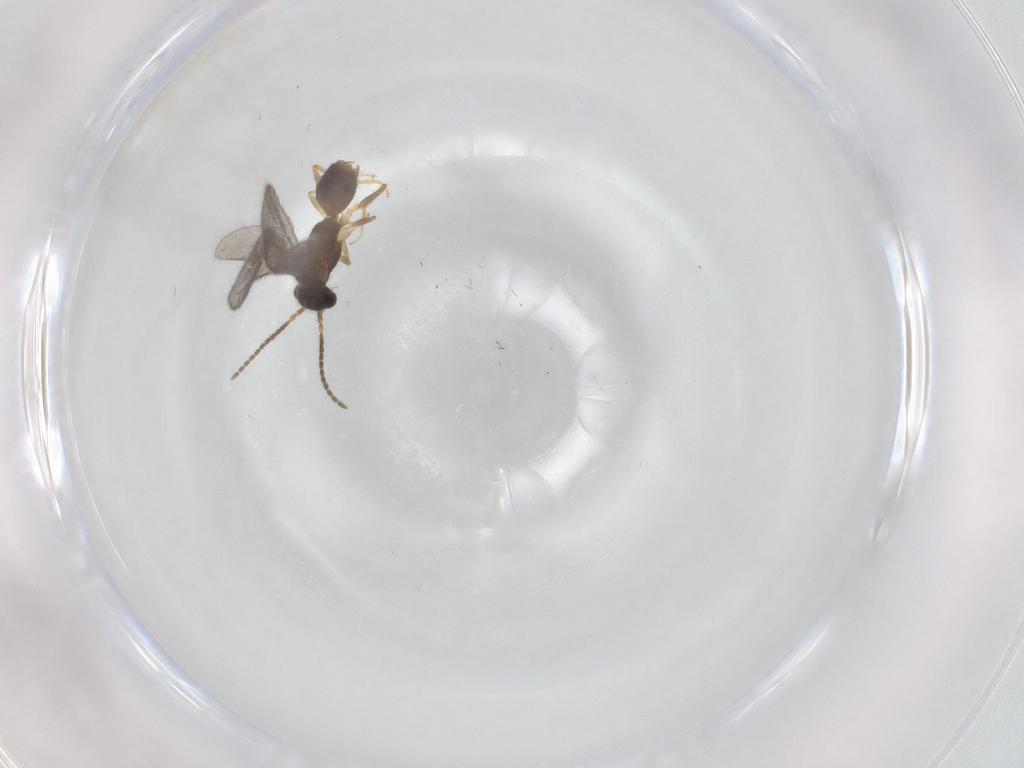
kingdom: Animalia
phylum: Arthropoda
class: Insecta
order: Hymenoptera
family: Bethylidae
